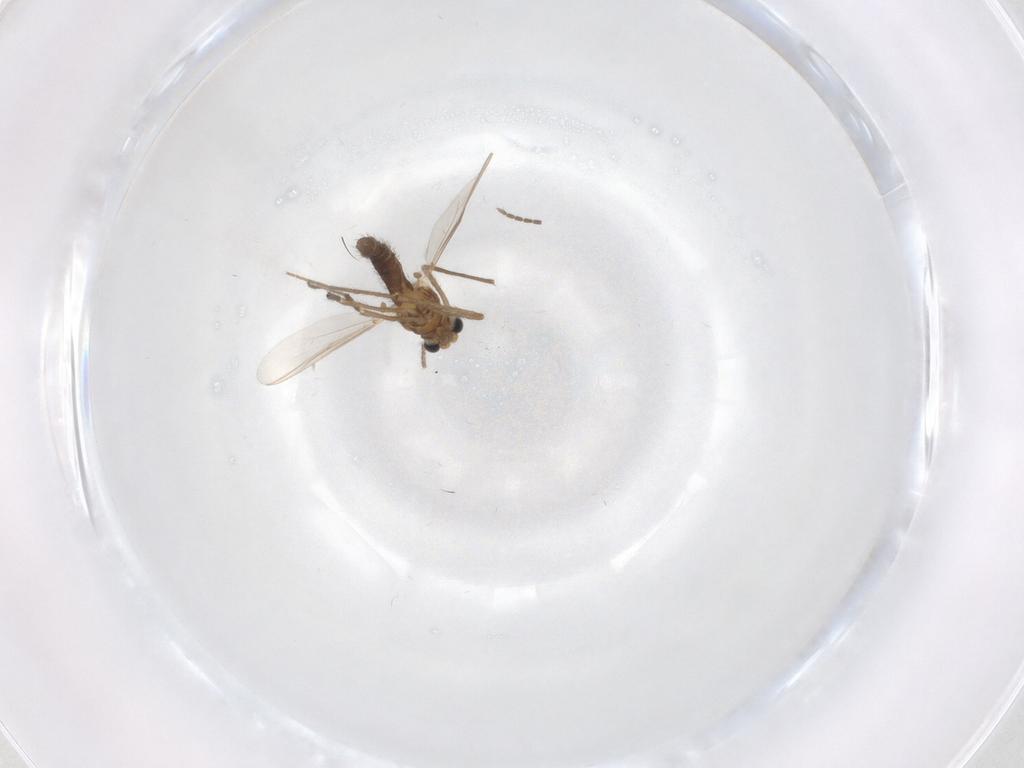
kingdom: Animalia
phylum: Arthropoda
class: Insecta
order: Diptera
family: Chironomidae
